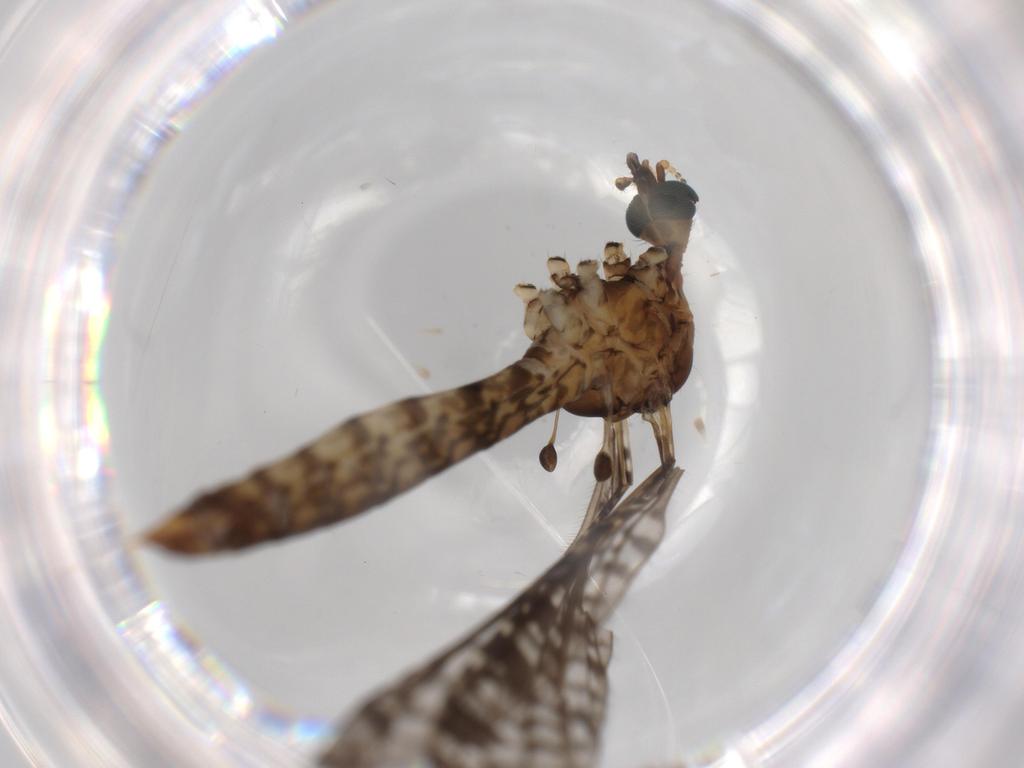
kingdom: Animalia
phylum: Arthropoda
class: Insecta
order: Diptera
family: Limoniidae
